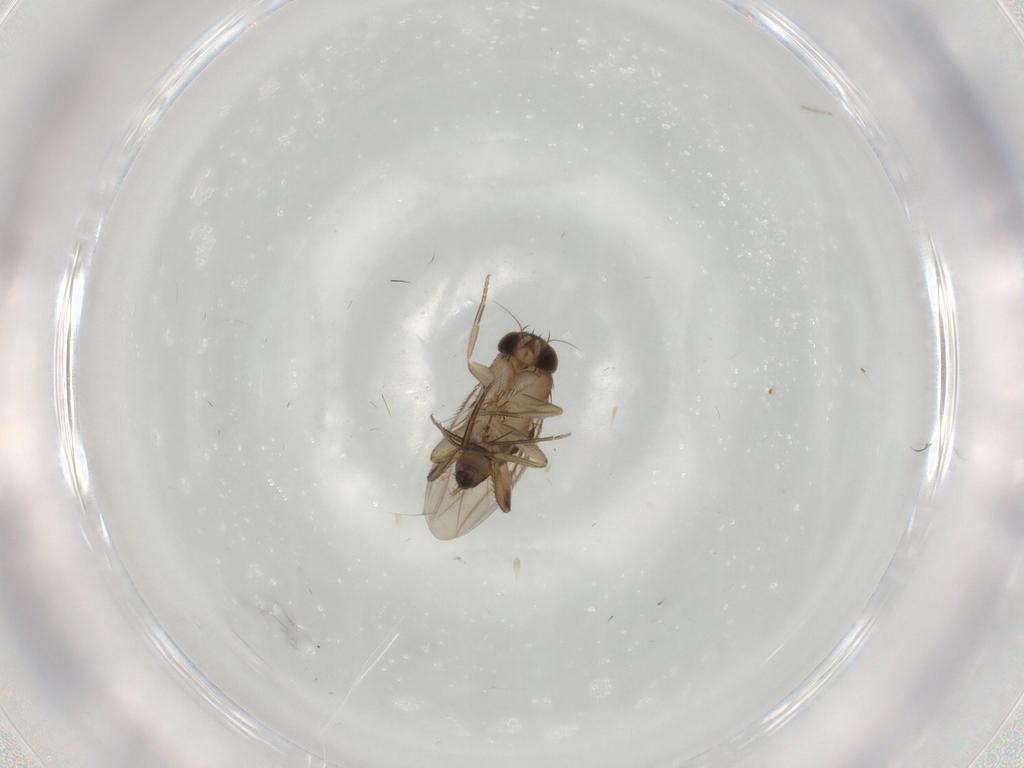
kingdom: Animalia
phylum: Arthropoda
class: Insecta
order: Diptera
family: Phoridae
